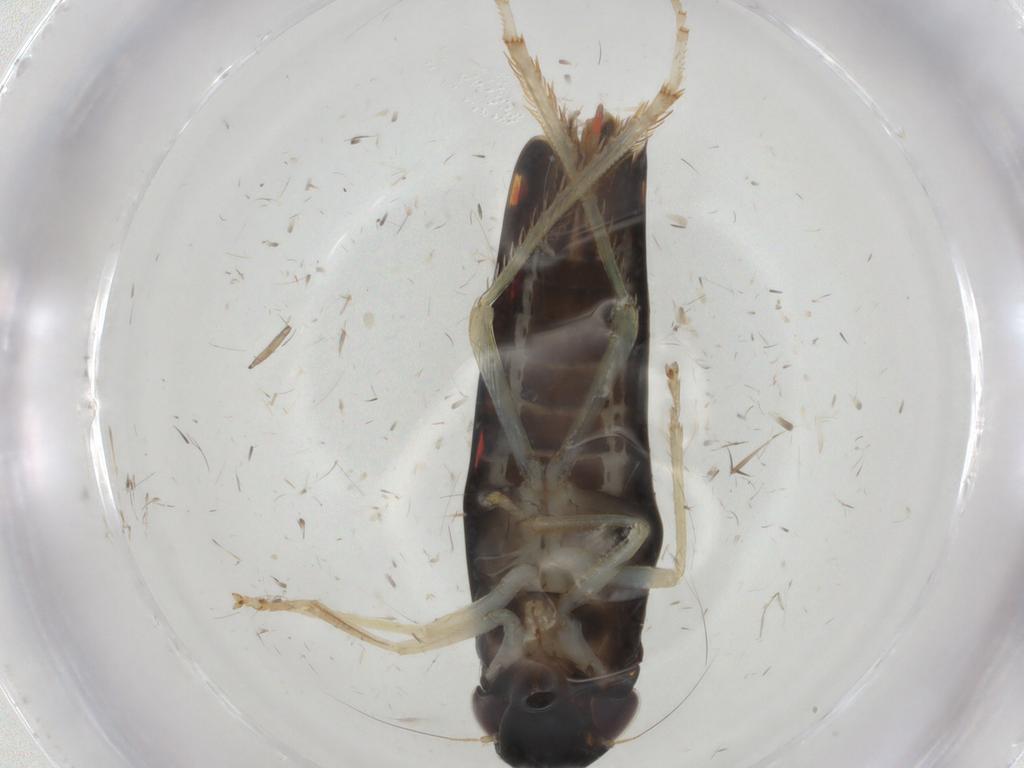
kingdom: Animalia
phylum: Arthropoda
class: Insecta
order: Hemiptera
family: Cicadellidae
